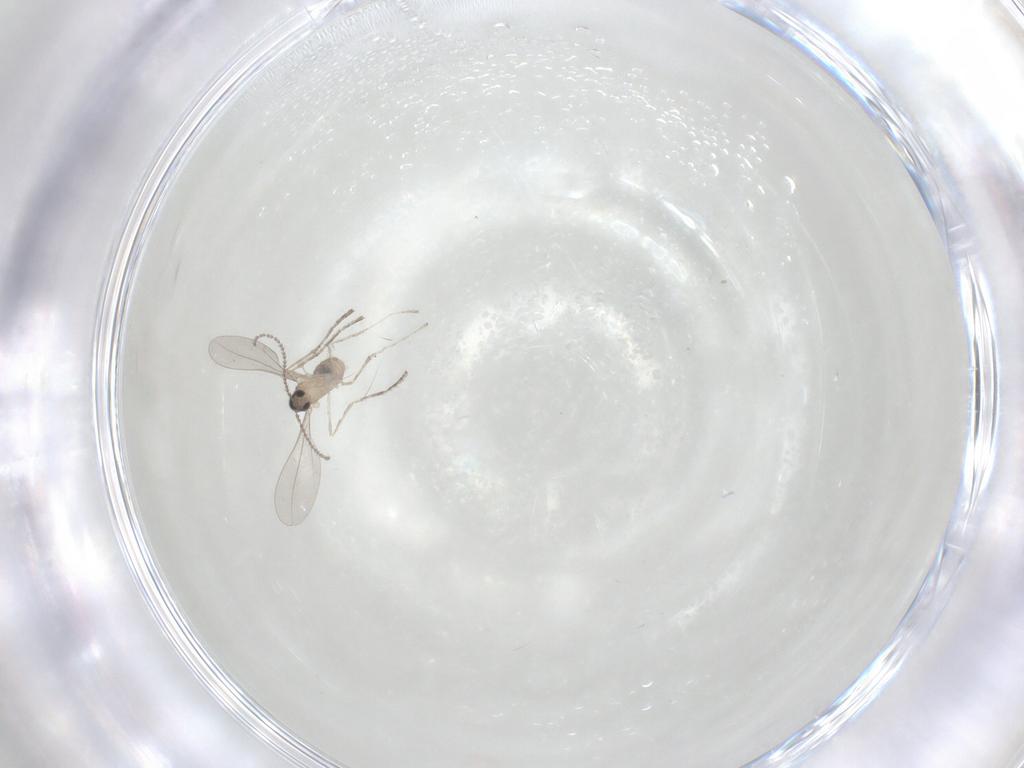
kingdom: Animalia
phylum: Arthropoda
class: Insecta
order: Diptera
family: Cecidomyiidae
